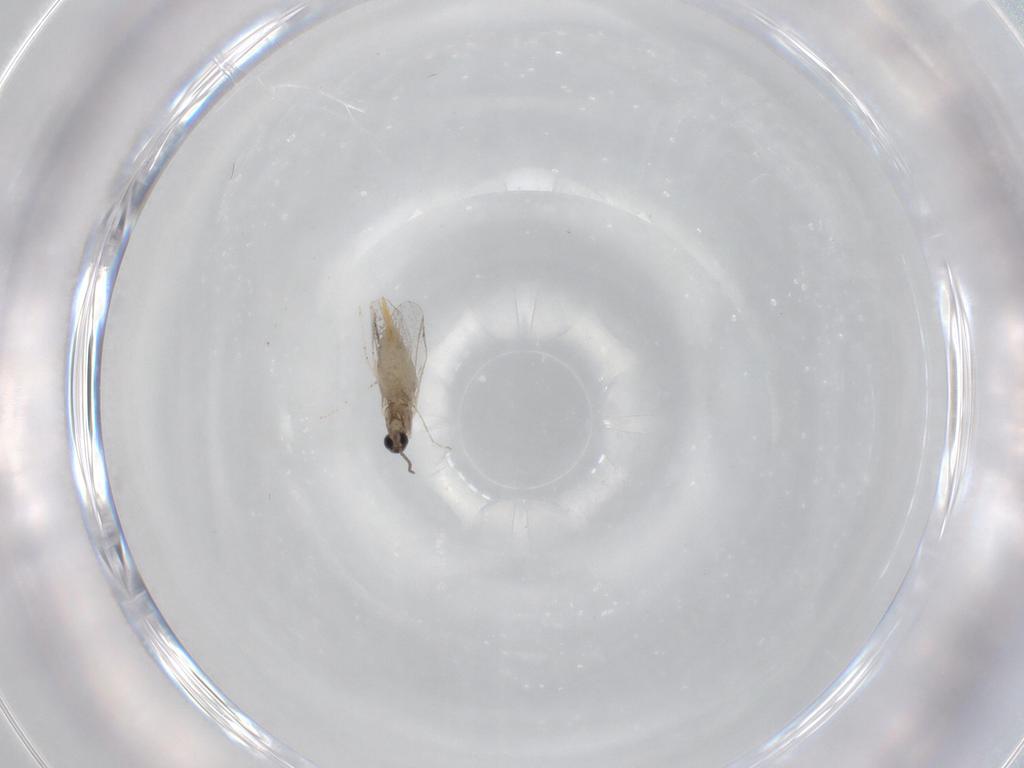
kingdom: Animalia
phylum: Arthropoda
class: Insecta
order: Diptera
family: Cecidomyiidae
